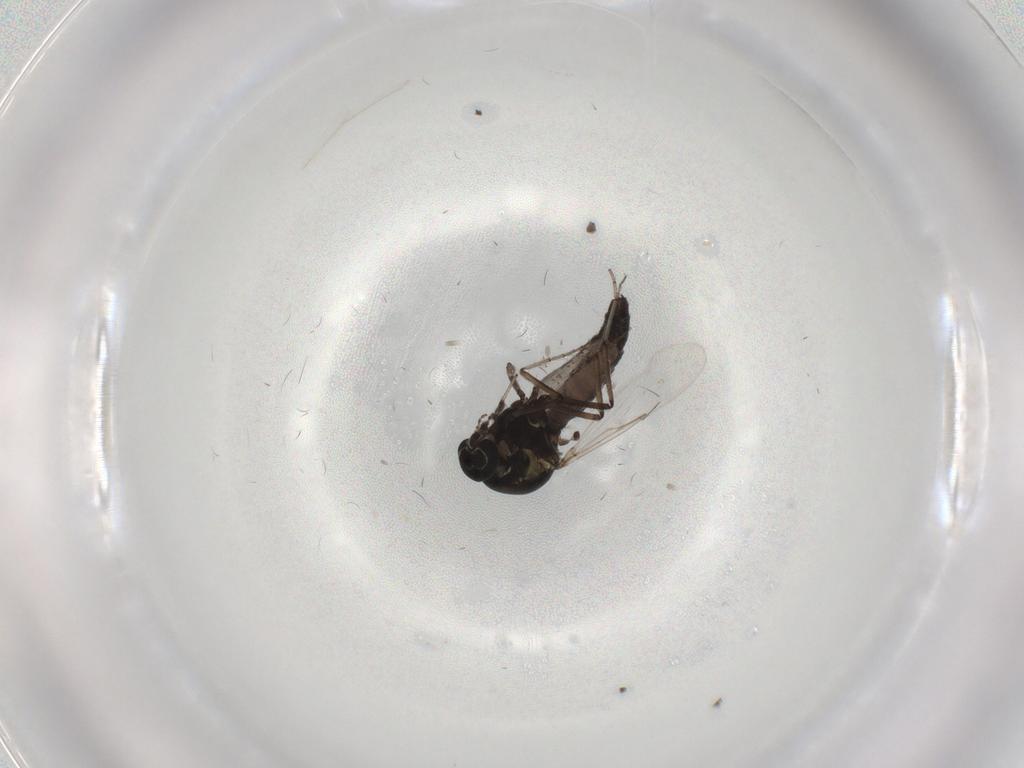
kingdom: Animalia
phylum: Arthropoda
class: Insecta
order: Diptera
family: Ceratopogonidae
